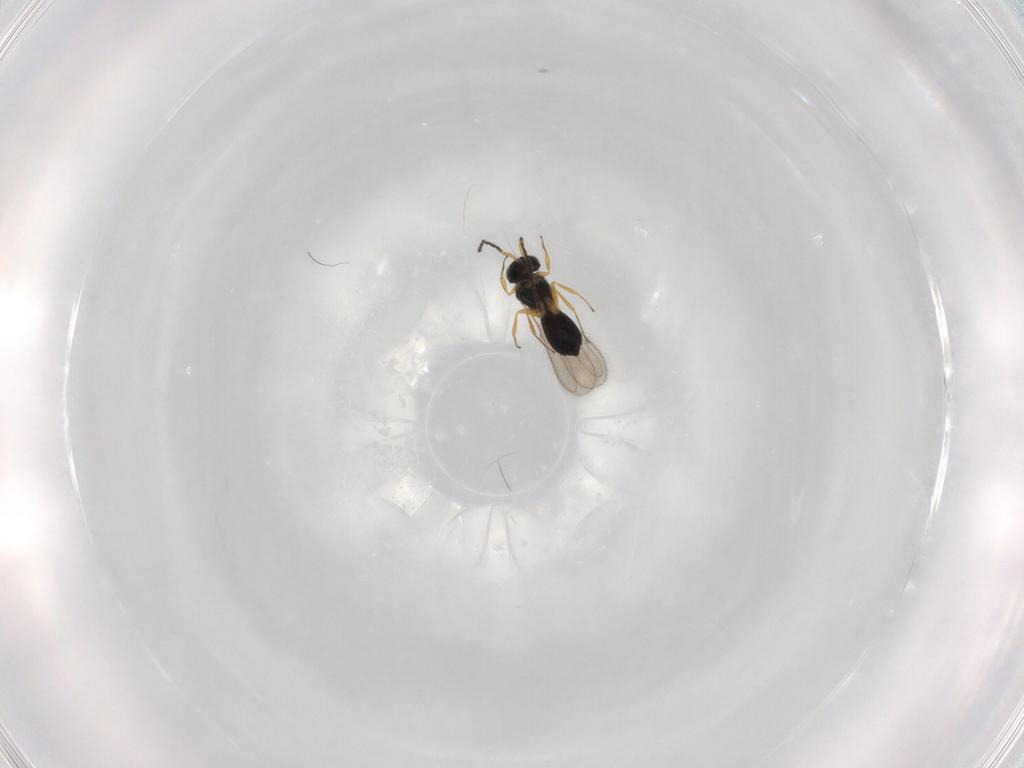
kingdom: Animalia
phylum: Arthropoda
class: Insecta
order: Hymenoptera
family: Scelionidae
